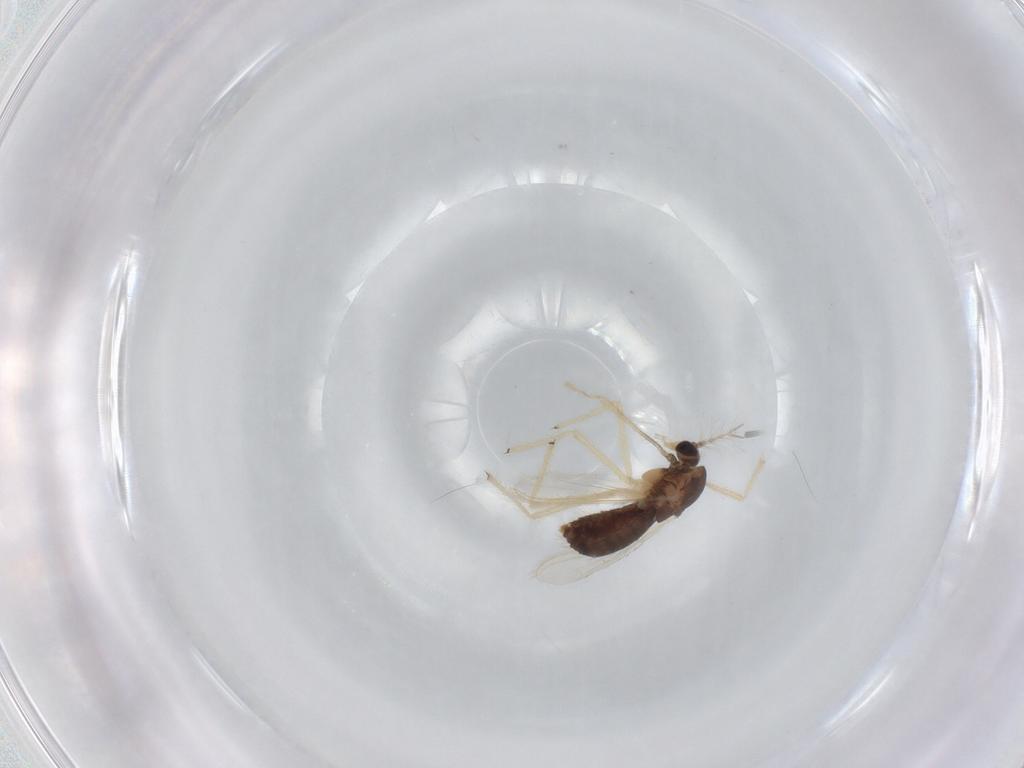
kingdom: Animalia
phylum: Arthropoda
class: Insecta
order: Diptera
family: Chironomidae
